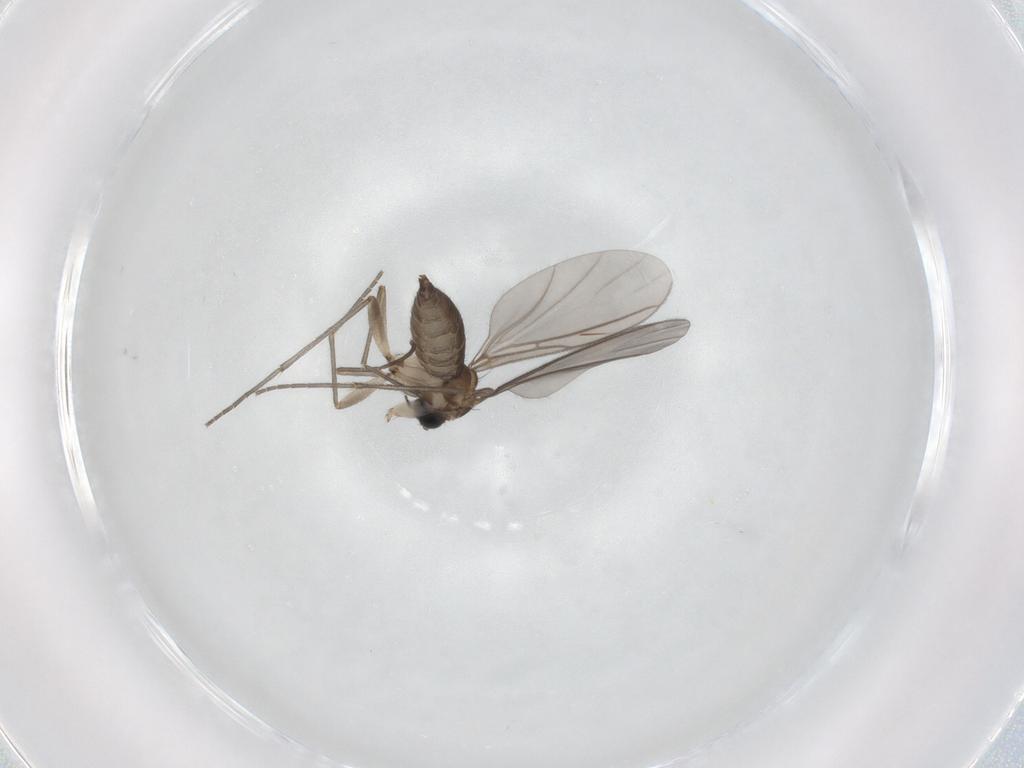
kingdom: Animalia
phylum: Arthropoda
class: Insecta
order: Diptera
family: Sciaridae
